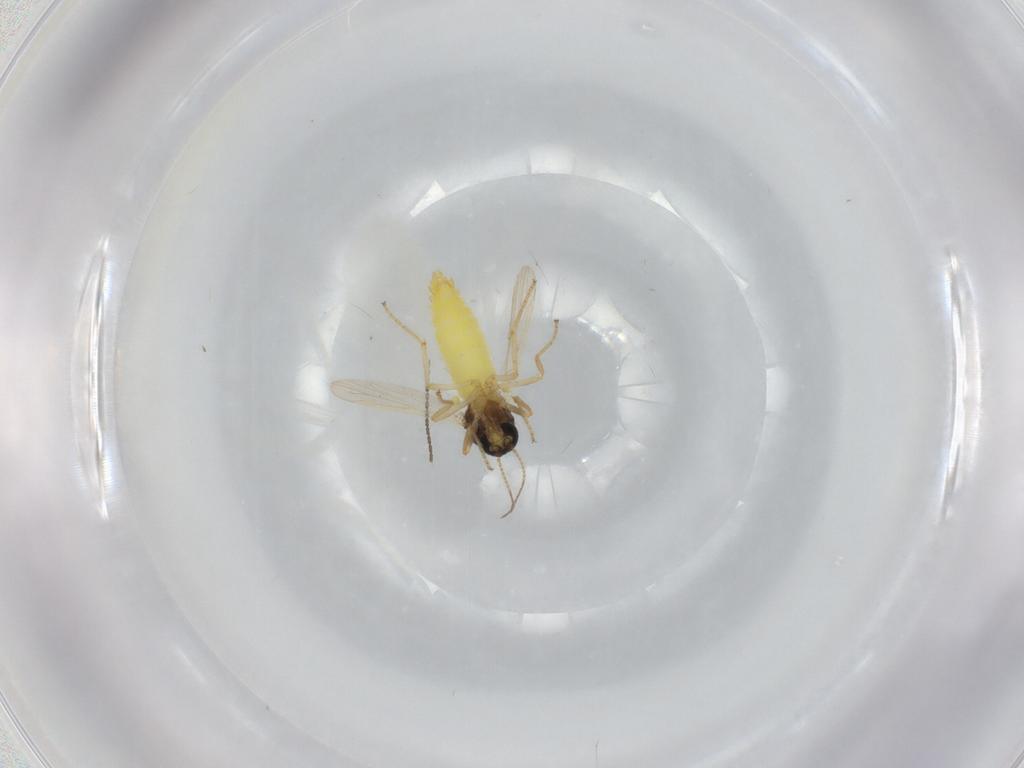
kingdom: Animalia
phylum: Arthropoda
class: Insecta
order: Diptera
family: Ceratopogonidae
